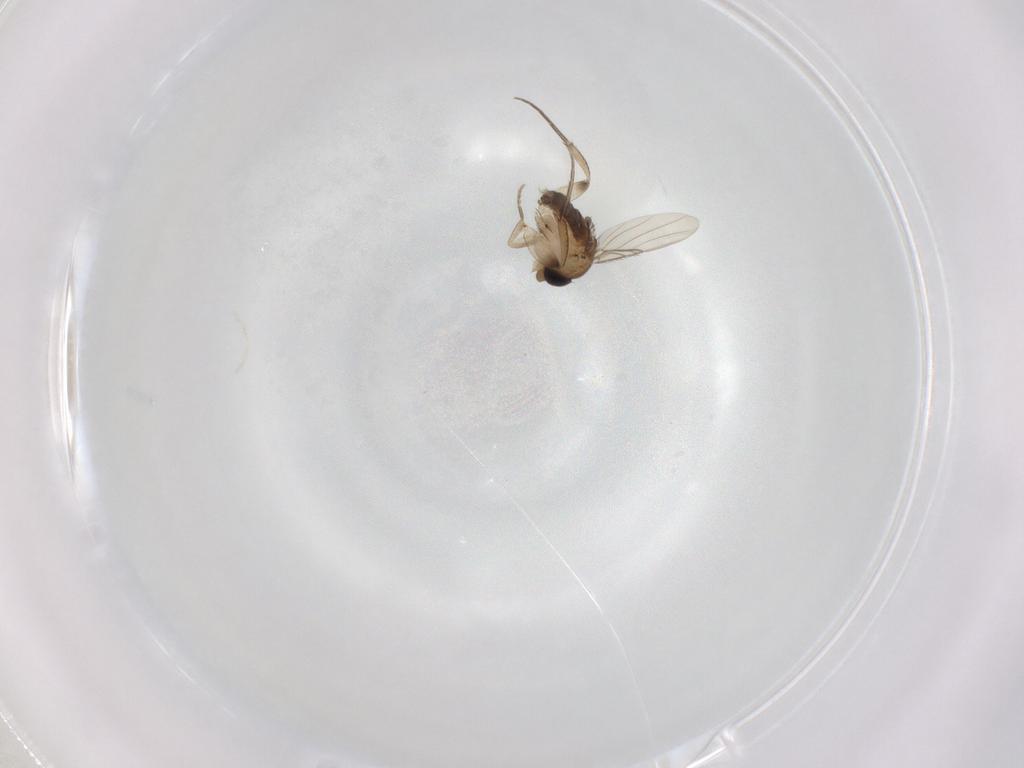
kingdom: Animalia
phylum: Arthropoda
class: Insecta
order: Diptera
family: Phoridae
